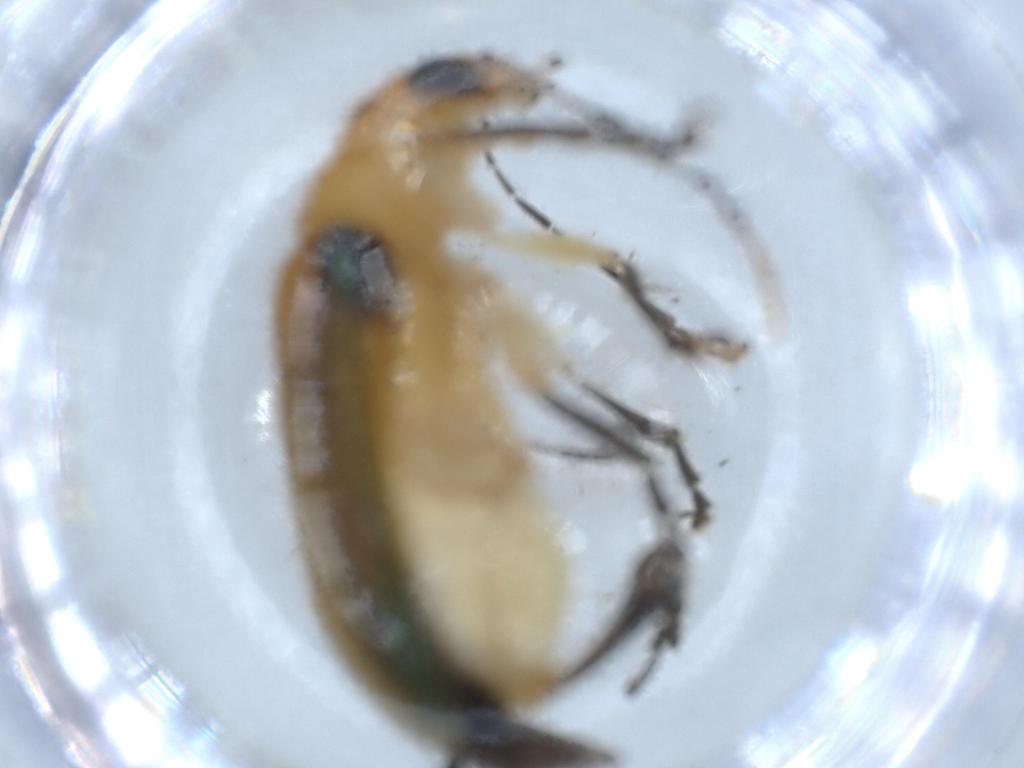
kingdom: Animalia
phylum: Arthropoda
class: Insecta
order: Coleoptera
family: Chrysomelidae
